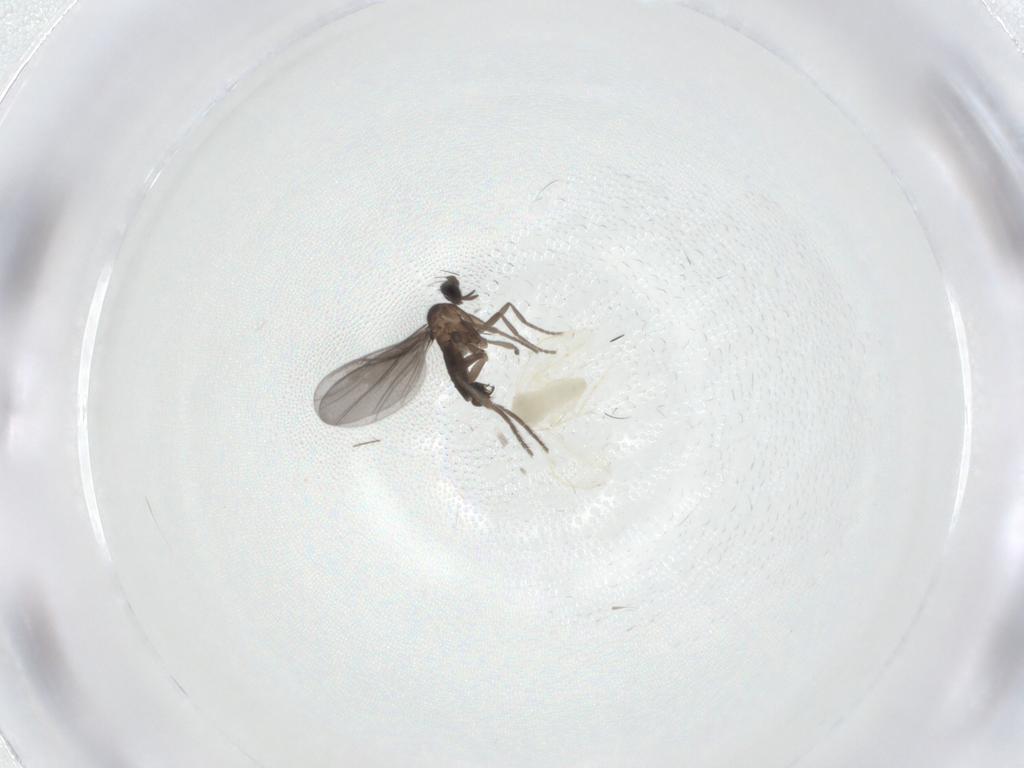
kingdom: Animalia
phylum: Arthropoda
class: Insecta
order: Diptera
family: Phoridae
